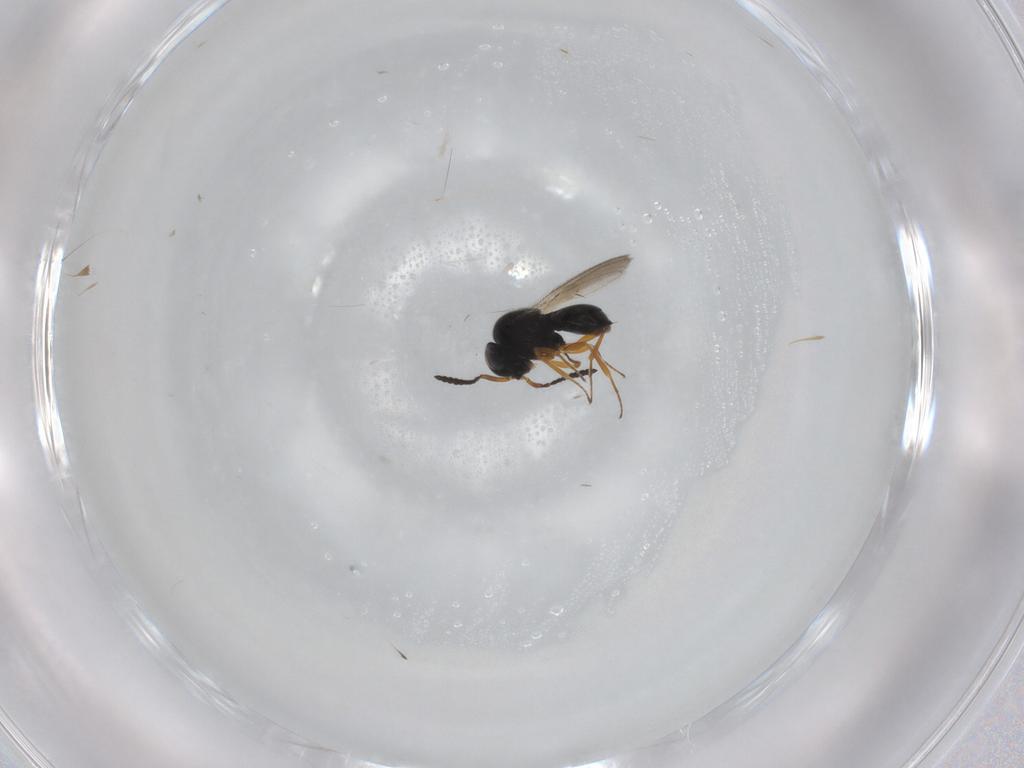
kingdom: Animalia
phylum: Arthropoda
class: Insecta
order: Hymenoptera
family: Scelionidae
